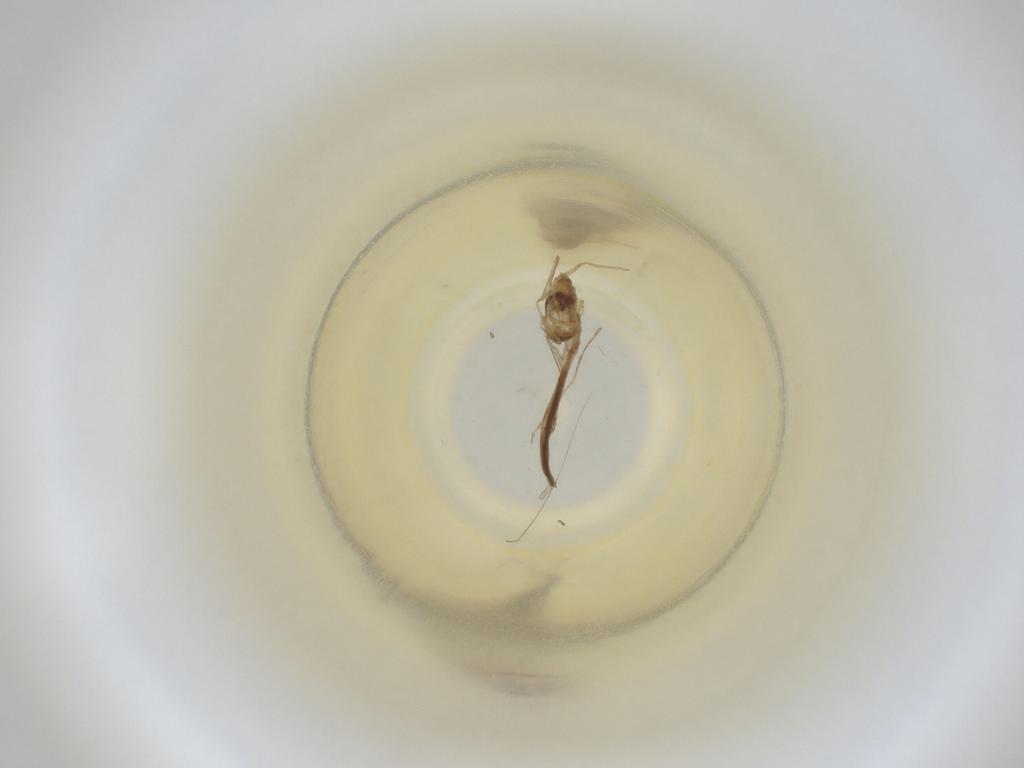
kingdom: Animalia
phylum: Arthropoda
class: Insecta
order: Diptera
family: Cecidomyiidae
